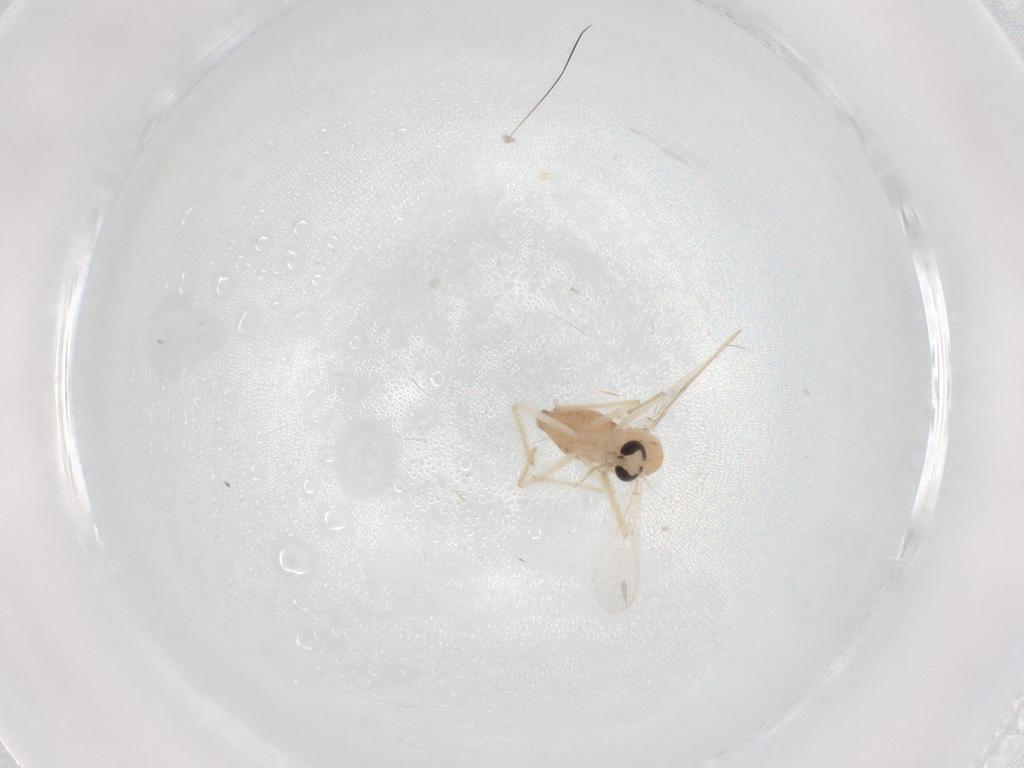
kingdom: Animalia
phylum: Arthropoda
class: Insecta
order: Diptera
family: Chironomidae
